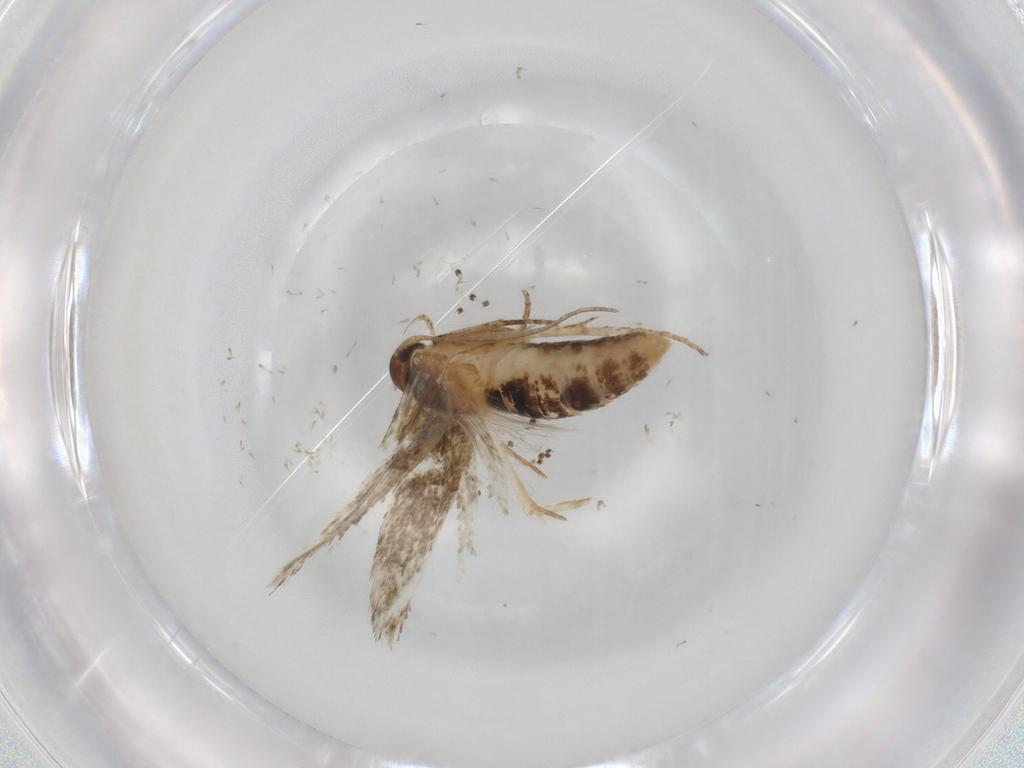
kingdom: Animalia
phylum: Arthropoda
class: Insecta
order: Lepidoptera
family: Cosmopterigidae
